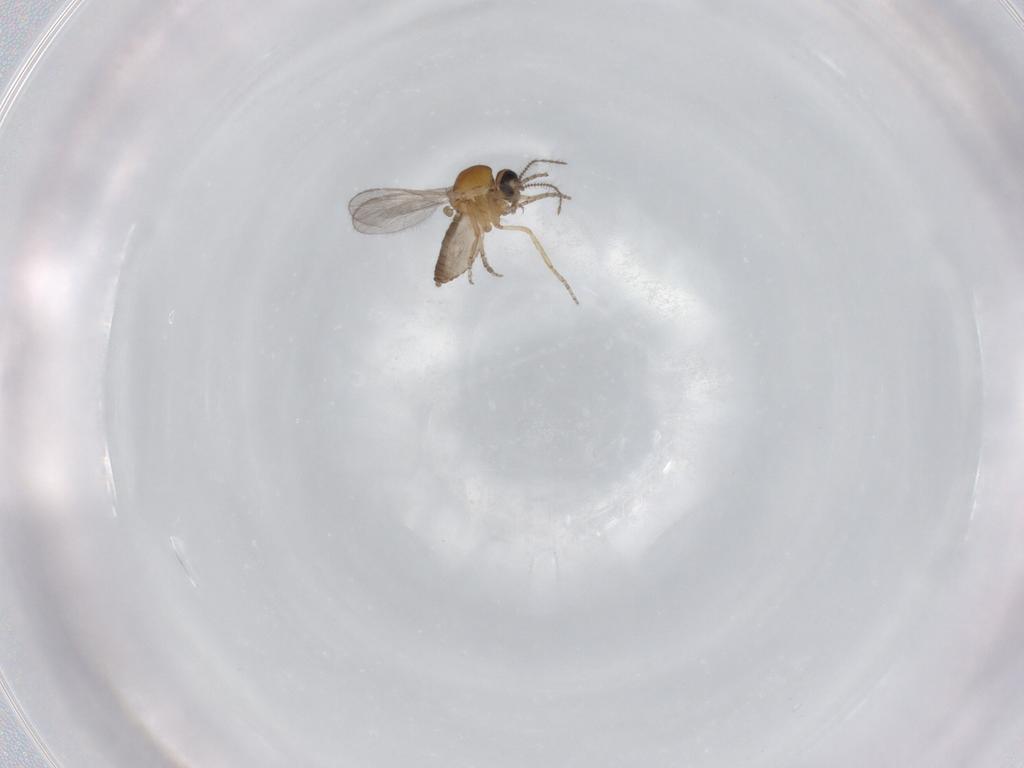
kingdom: Animalia
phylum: Arthropoda
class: Insecta
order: Diptera
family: Ceratopogonidae
